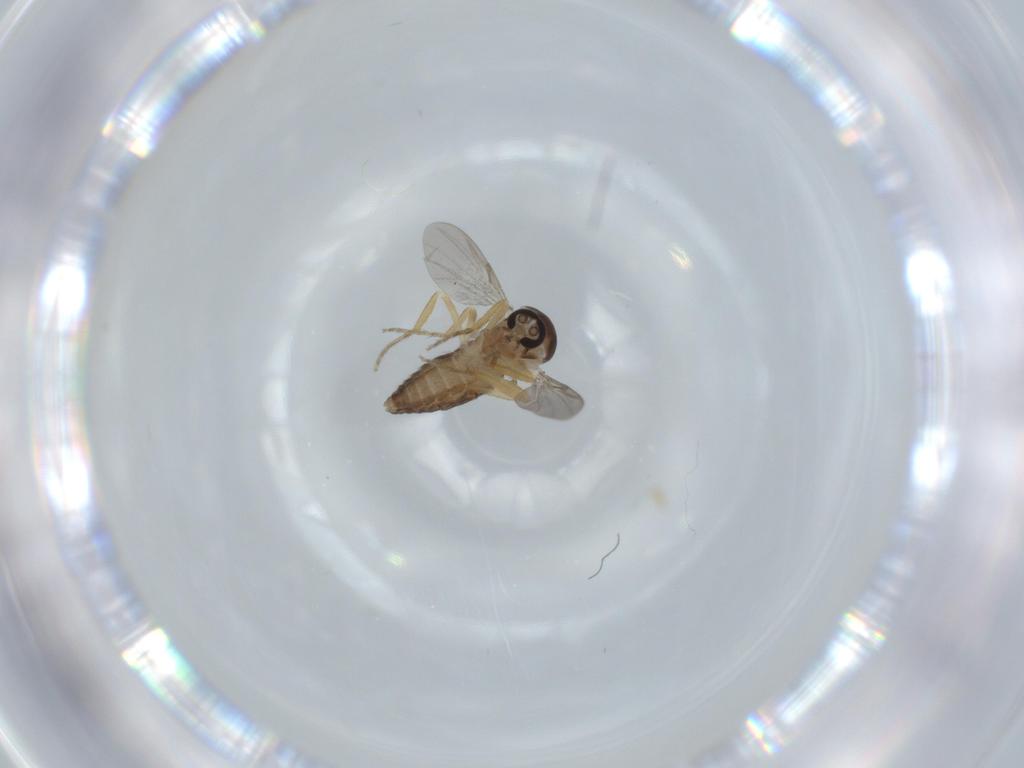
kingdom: Animalia
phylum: Arthropoda
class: Insecta
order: Diptera
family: Ceratopogonidae
